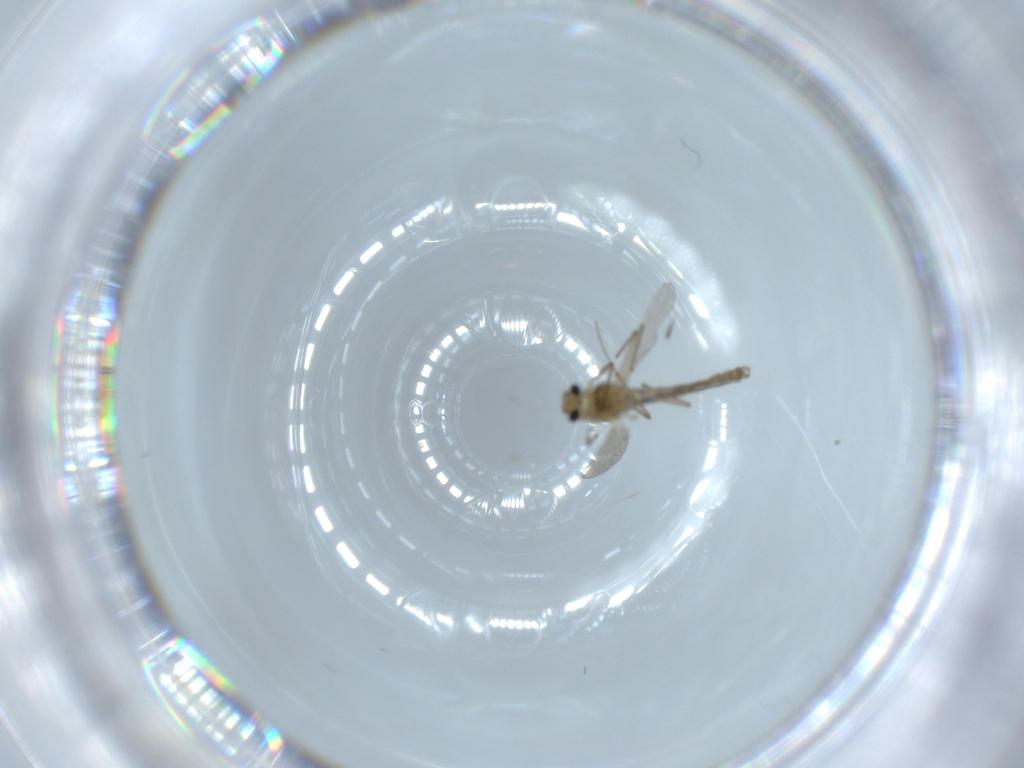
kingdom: Animalia
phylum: Arthropoda
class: Insecta
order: Diptera
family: Chironomidae
